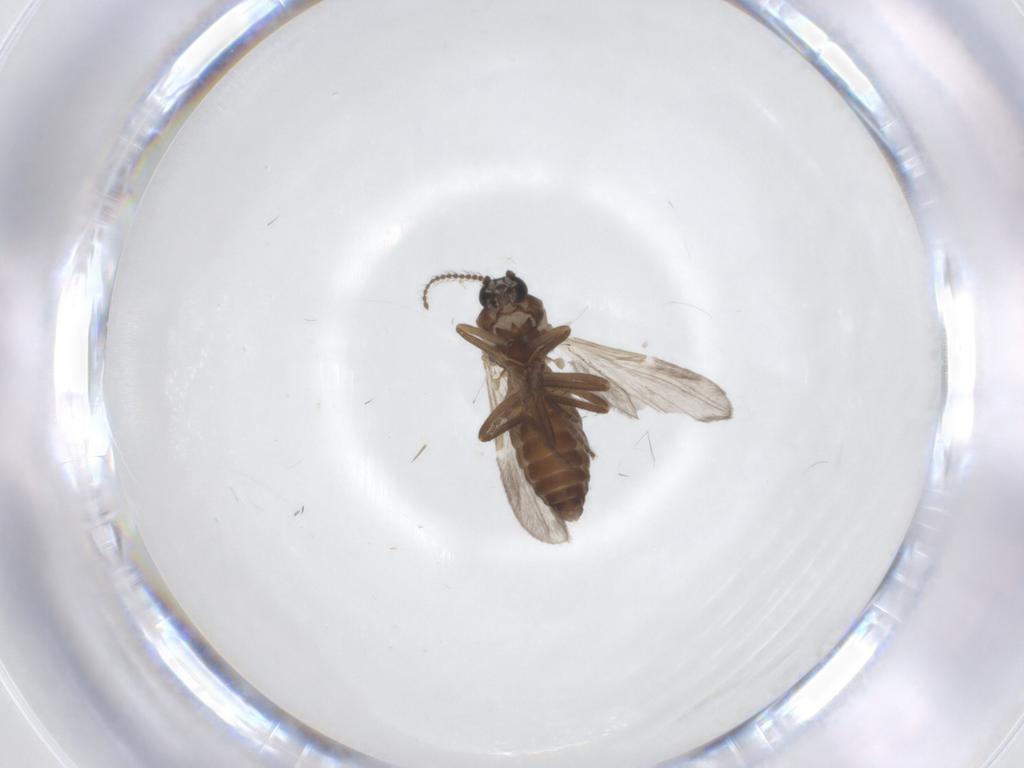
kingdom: Animalia
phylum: Arthropoda
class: Insecta
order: Diptera
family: Ceratopogonidae
